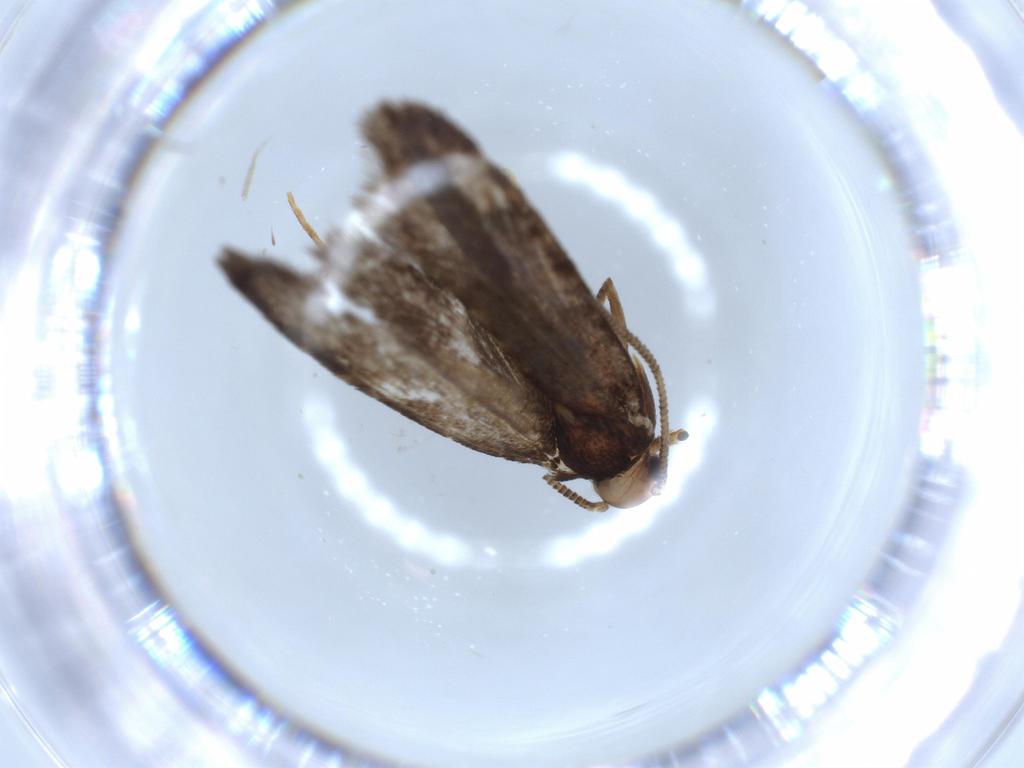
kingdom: Animalia
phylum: Arthropoda
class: Insecta
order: Lepidoptera
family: Tineidae
